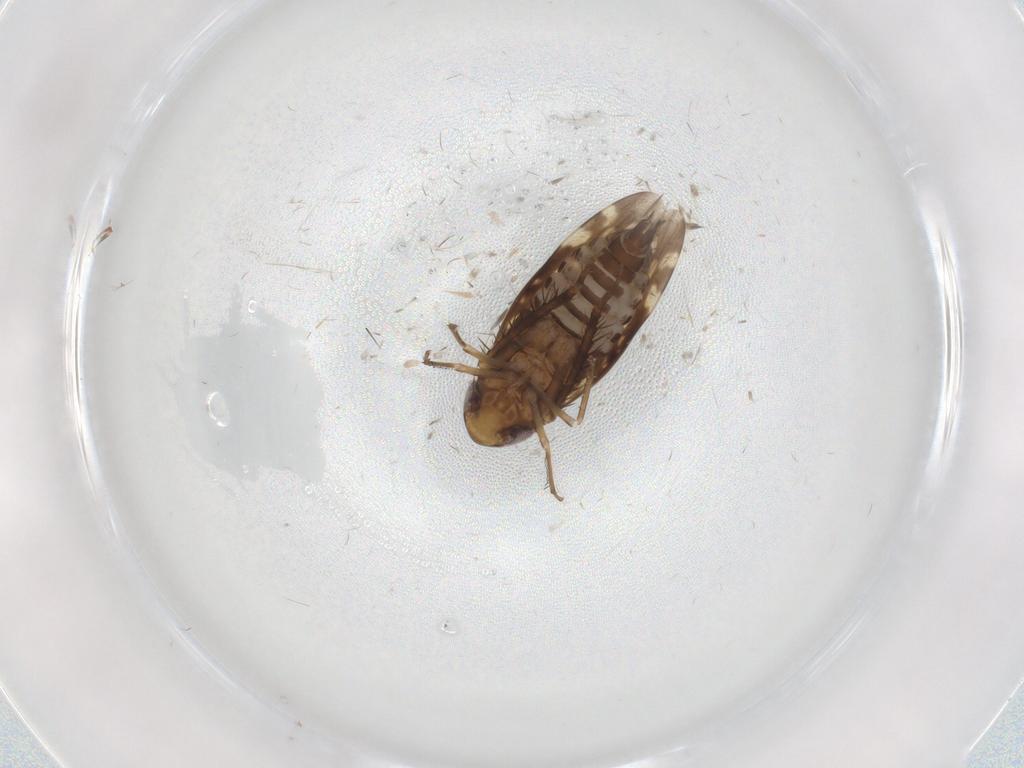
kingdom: Animalia
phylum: Arthropoda
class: Insecta
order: Hemiptera
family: Cicadellidae
